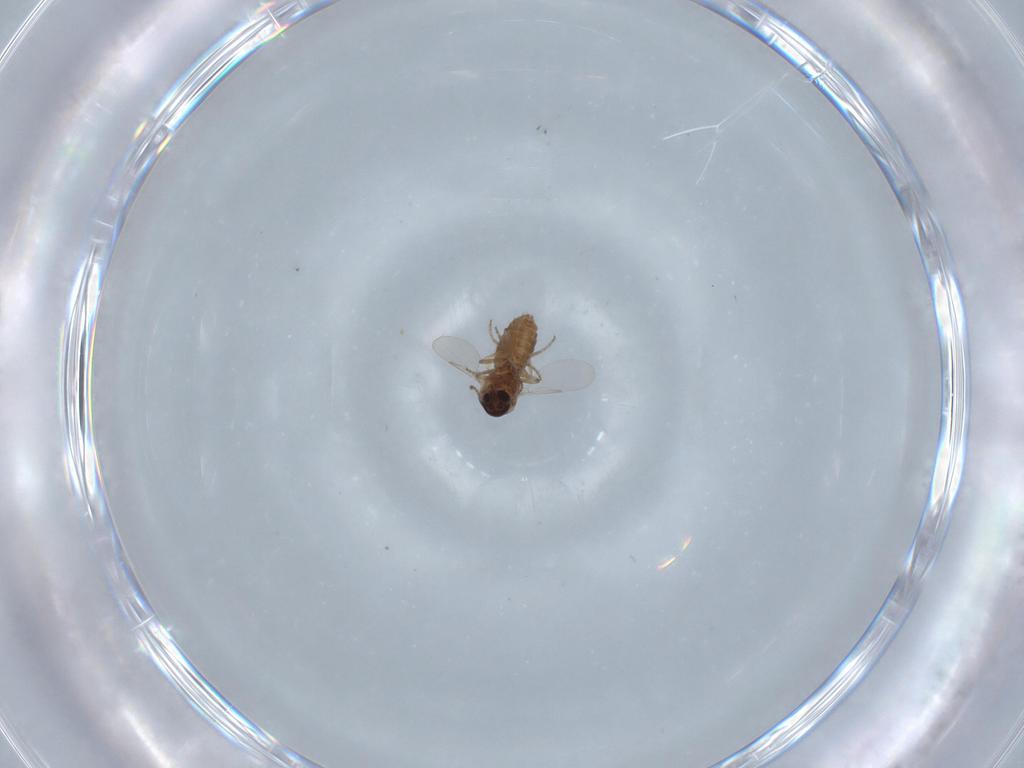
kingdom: Animalia
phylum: Arthropoda
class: Insecta
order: Diptera
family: Ceratopogonidae
